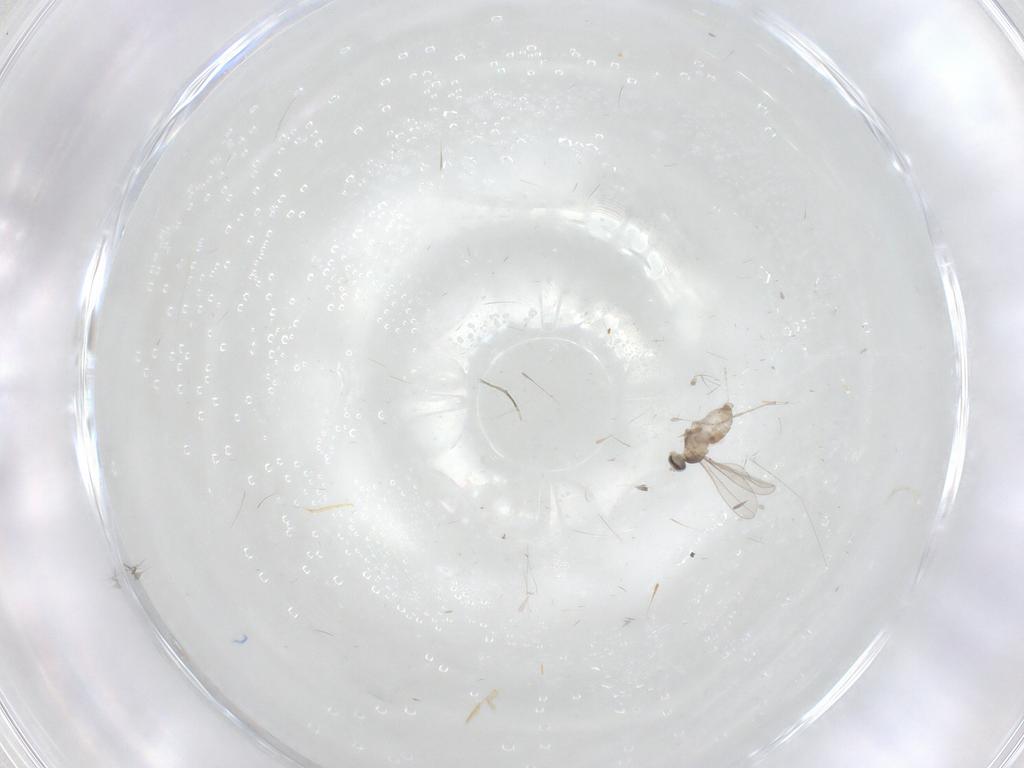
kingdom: Animalia
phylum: Arthropoda
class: Insecta
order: Diptera
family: Cecidomyiidae
